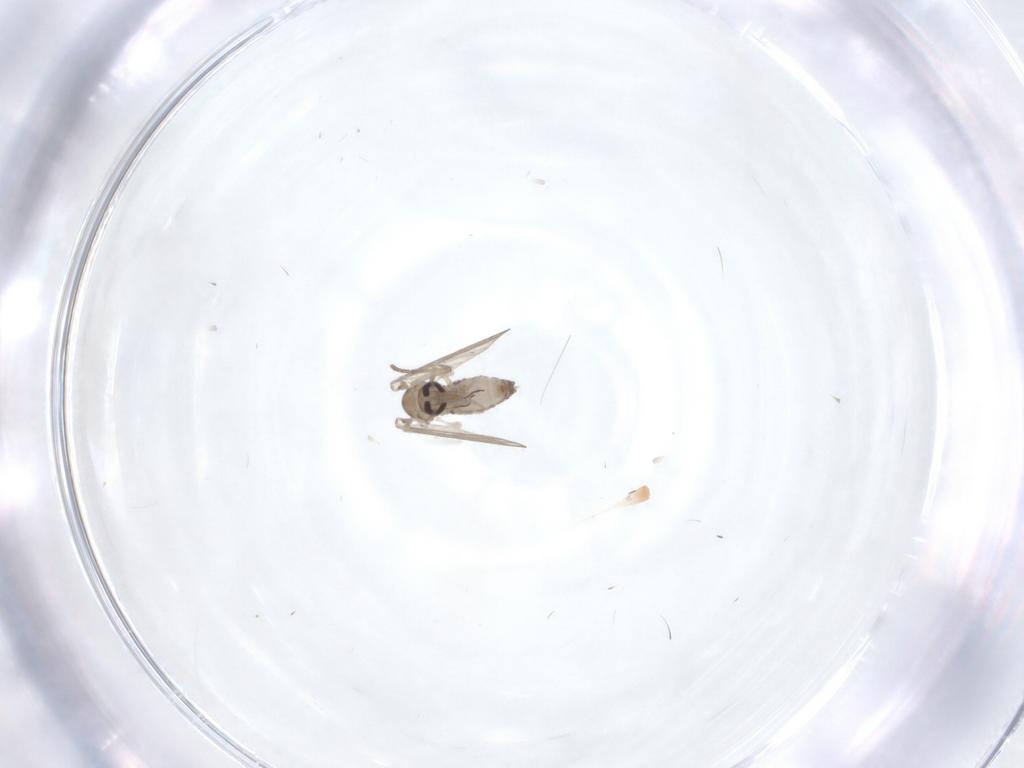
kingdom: Animalia
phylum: Arthropoda
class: Insecta
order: Diptera
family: Psychodidae
